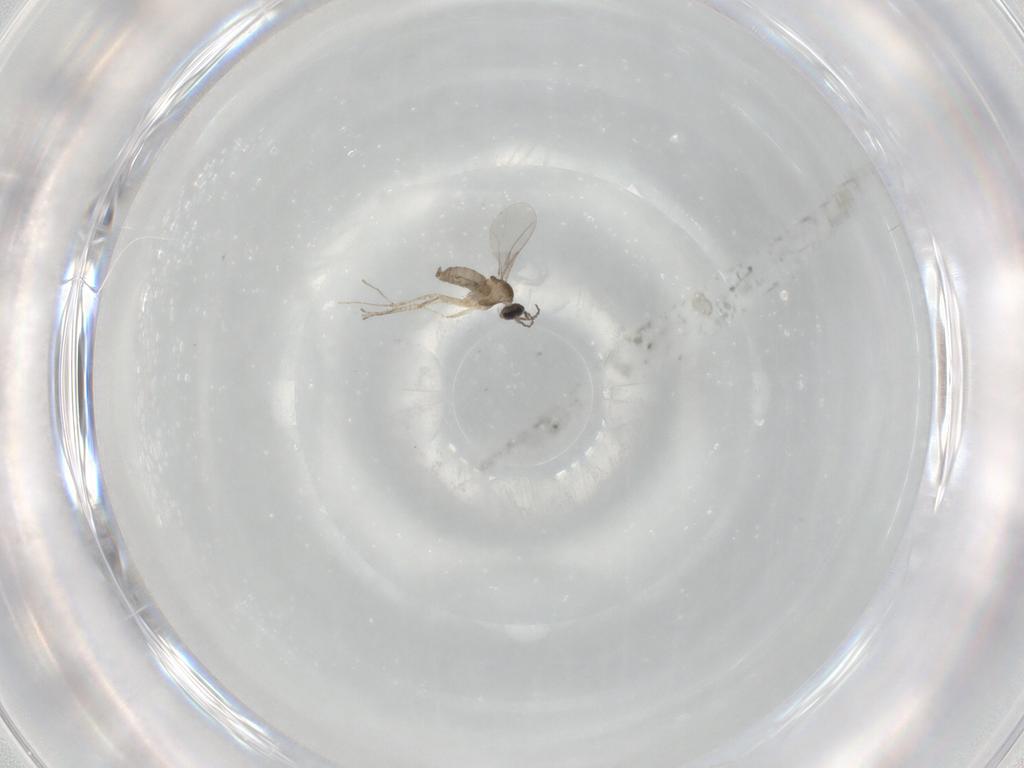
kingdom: Animalia
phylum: Arthropoda
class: Insecta
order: Diptera
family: Cecidomyiidae
